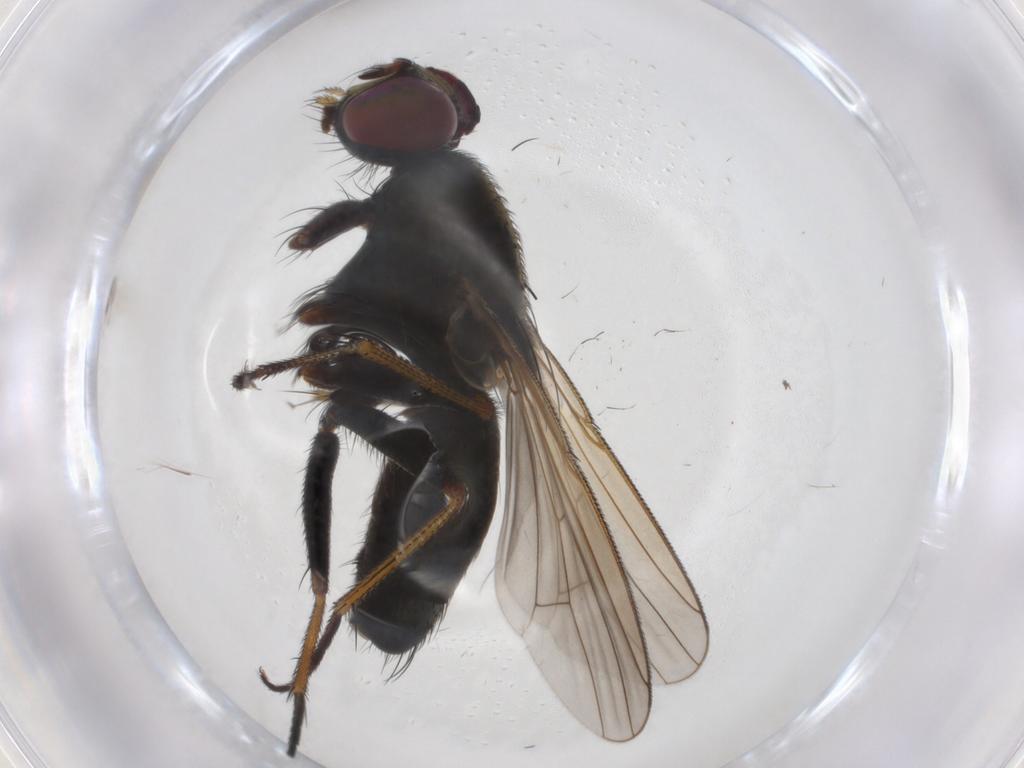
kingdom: Animalia
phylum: Arthropoda
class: Insecta
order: Diptera
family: Muscidae
